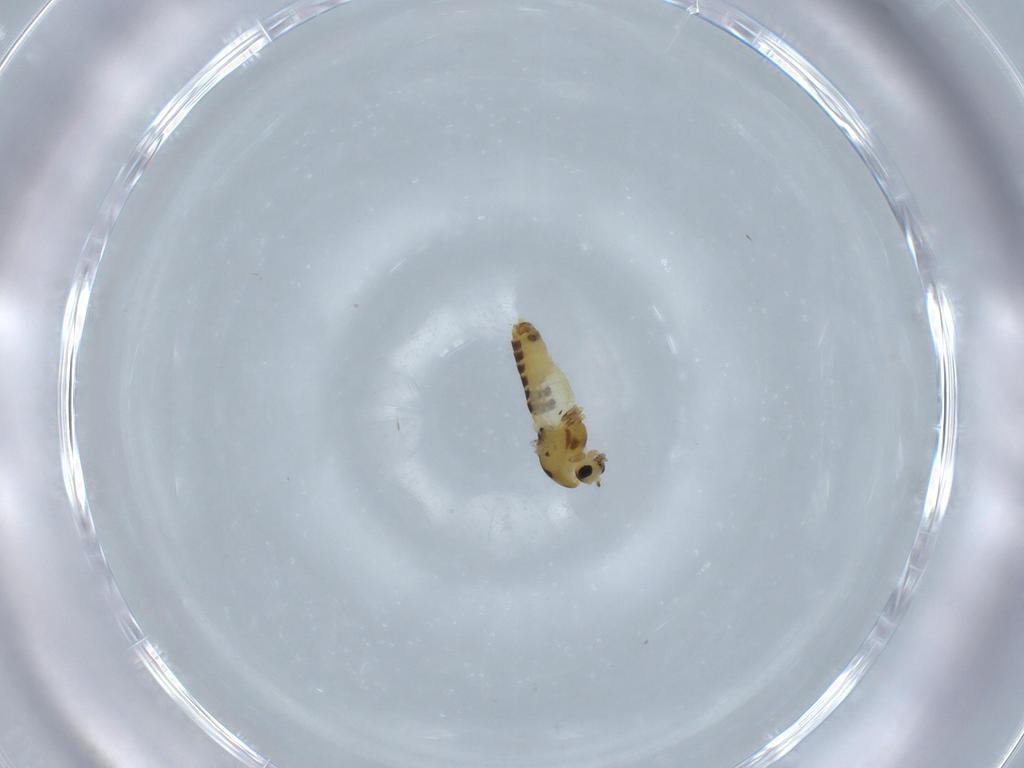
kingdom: Animalia
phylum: Arthropoda
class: Insecta
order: Diptera
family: Chironomidae
